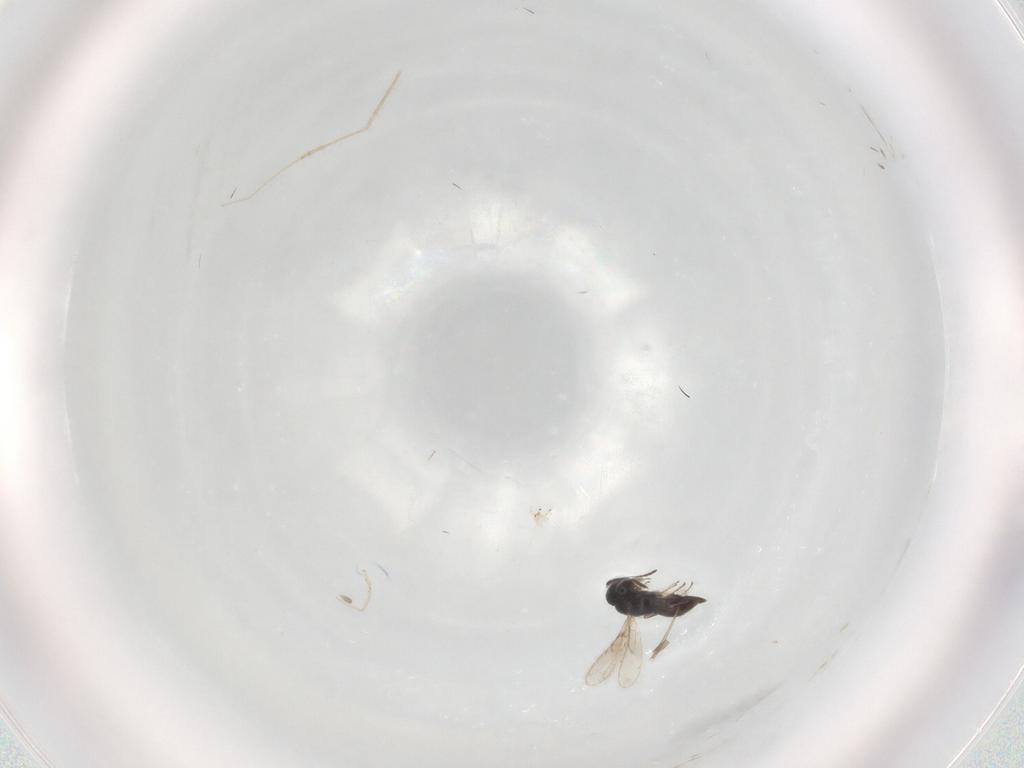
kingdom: Animalia
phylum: Arthropoda
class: Insecta
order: Hymenoptera
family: Scelionidae
